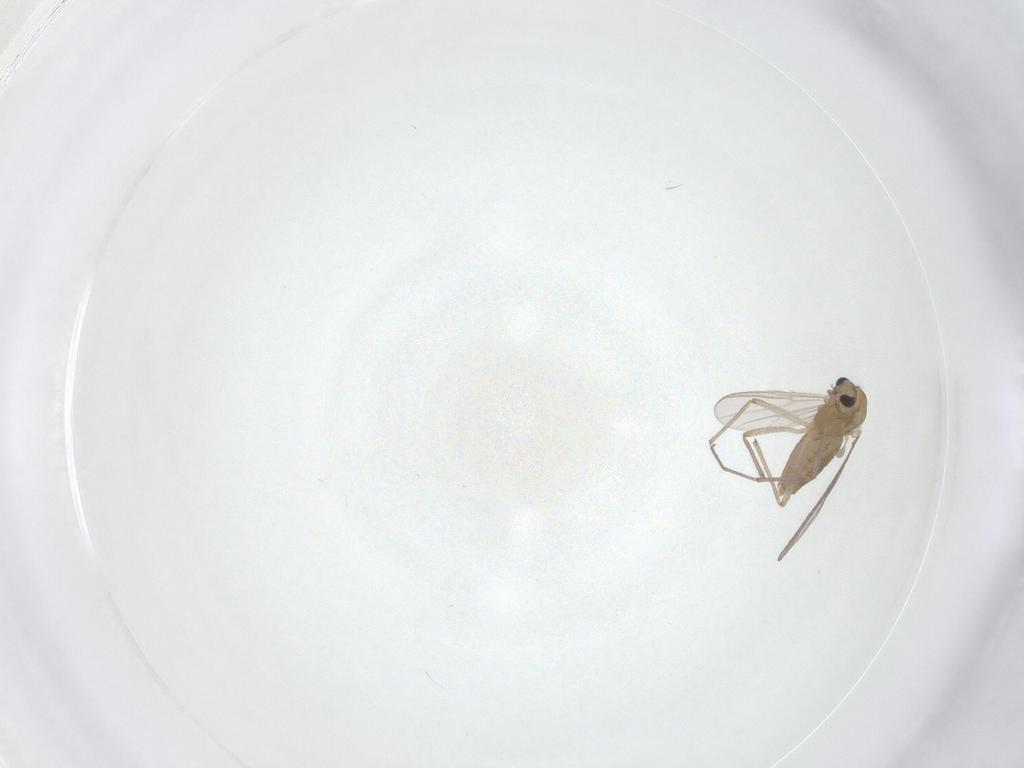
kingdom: Animalia
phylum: Arthropoda
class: Insecta
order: Diptera
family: Chironomidae
